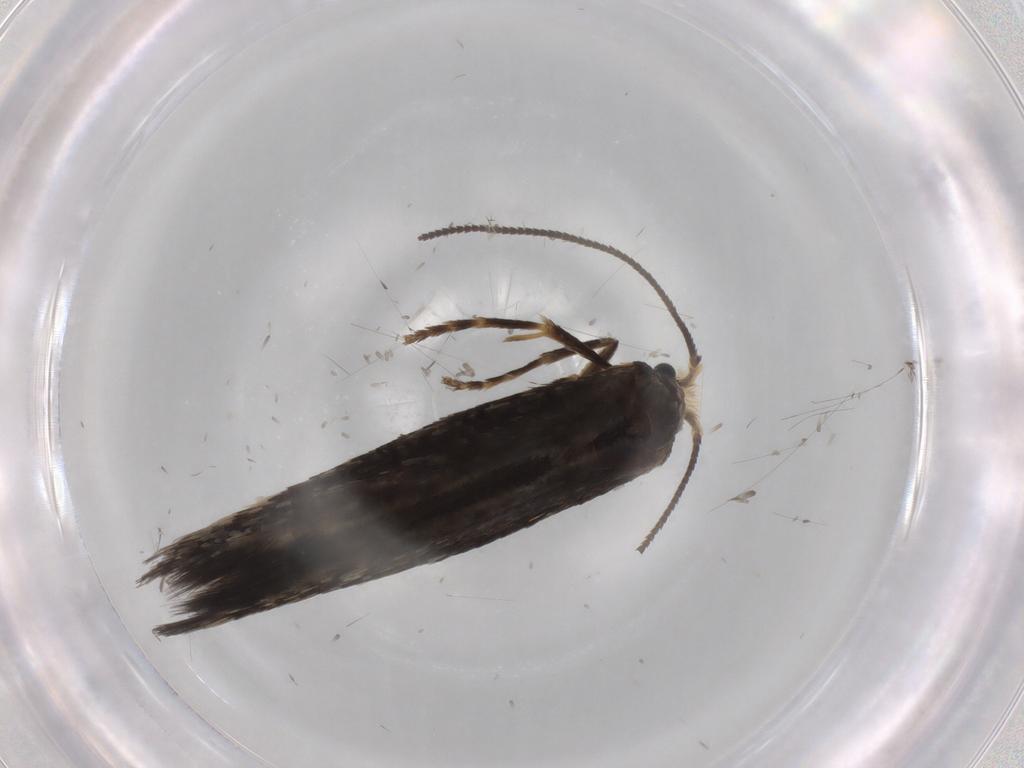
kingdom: Animalia
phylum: Arthropoda
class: Insecta
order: Lepidoptera
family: Nepticulidae
